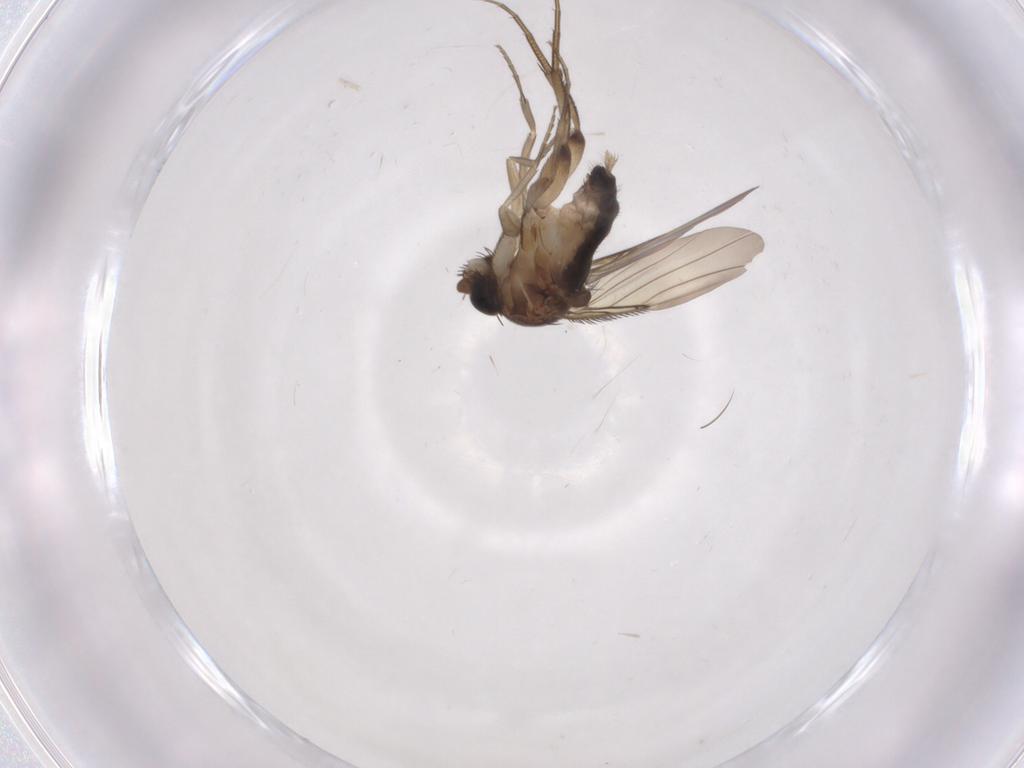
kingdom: Animalia
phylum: Arthropoda
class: Insecta
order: Diptera
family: Phoridae
